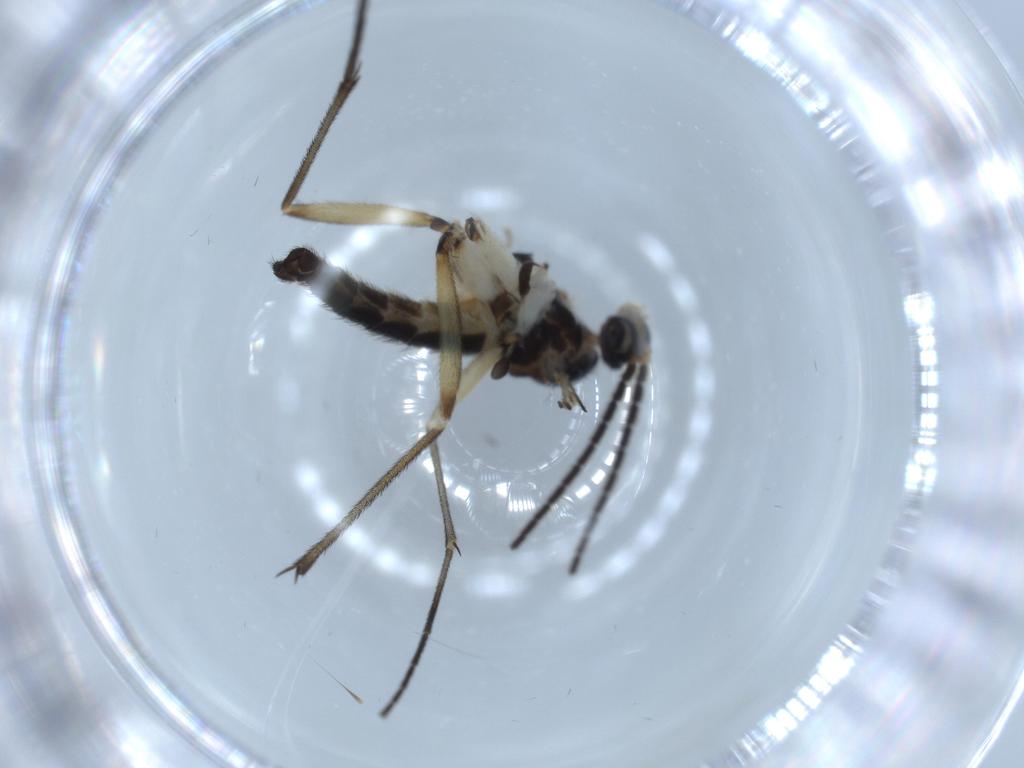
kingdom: Animalia
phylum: Arthropoda
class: Insecta
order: Diptera
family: Sciaridae
